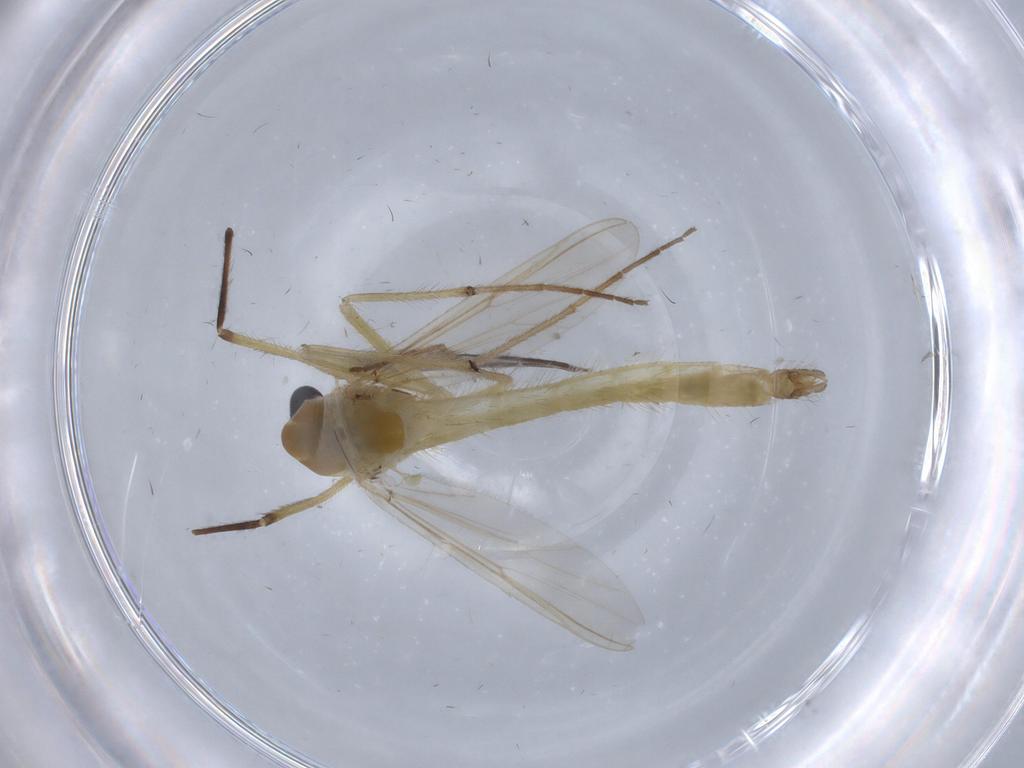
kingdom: Animalia
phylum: Arthropoda
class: Insecta
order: Diptera
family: Chironomidae
